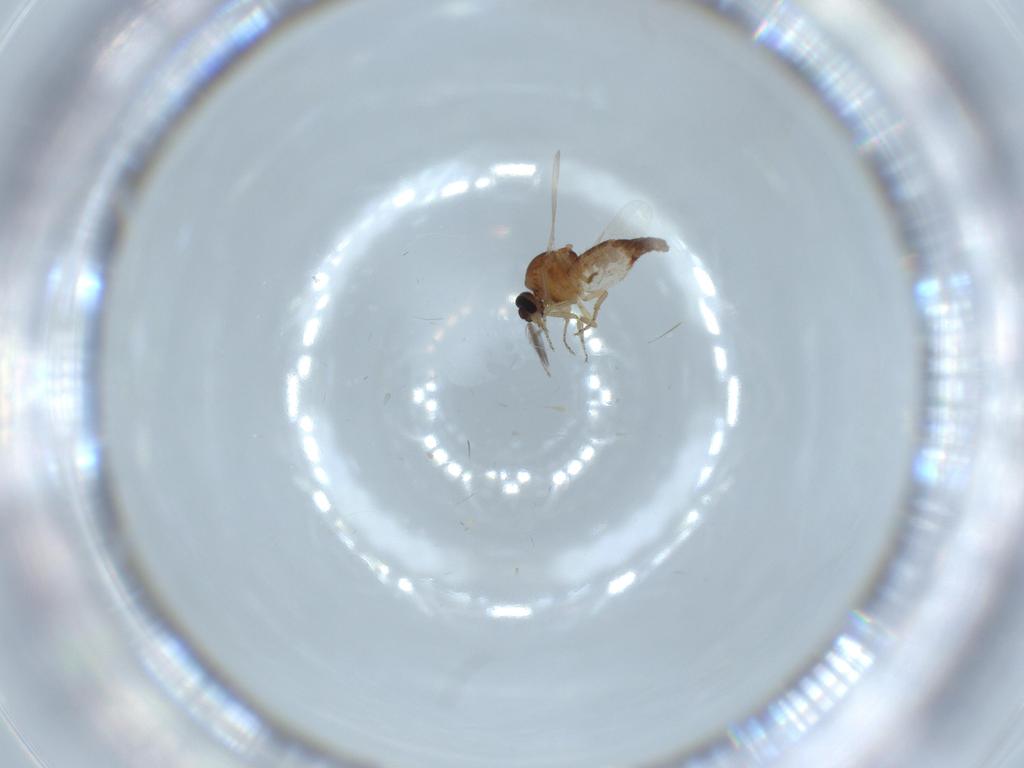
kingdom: Animalia
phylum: Arthropoda
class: Insecta
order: Diptera
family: Ceratopogonidae
